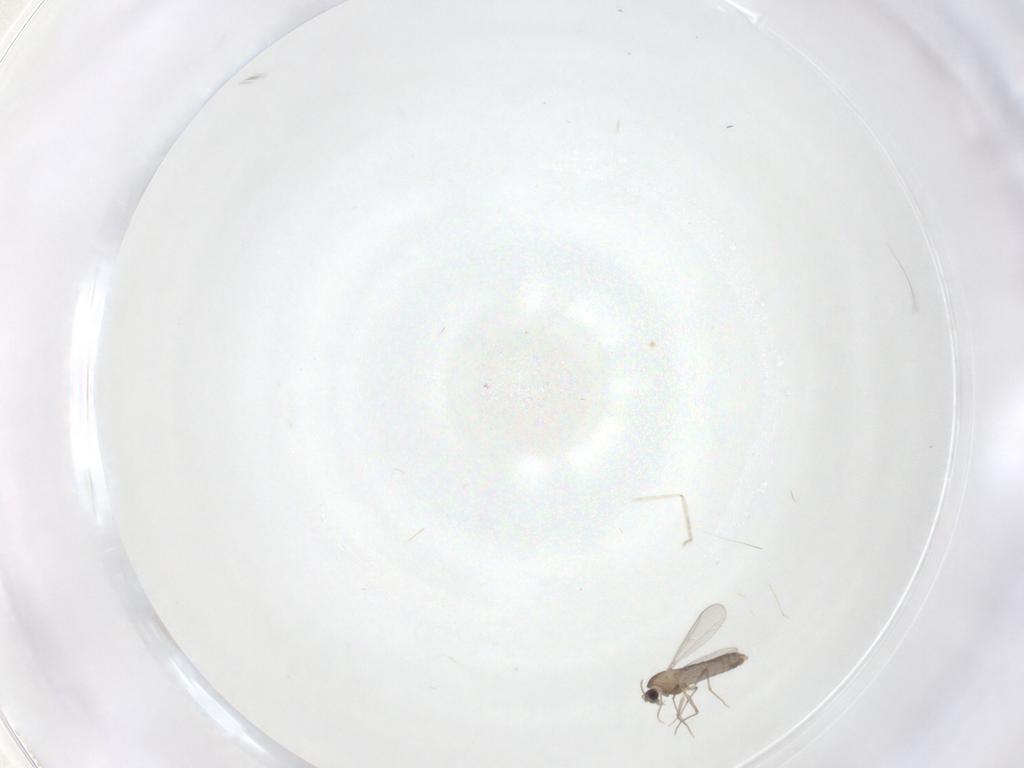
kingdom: Animalia
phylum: Arthropoda
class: Insecta
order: Diptera
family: Chironomidae
